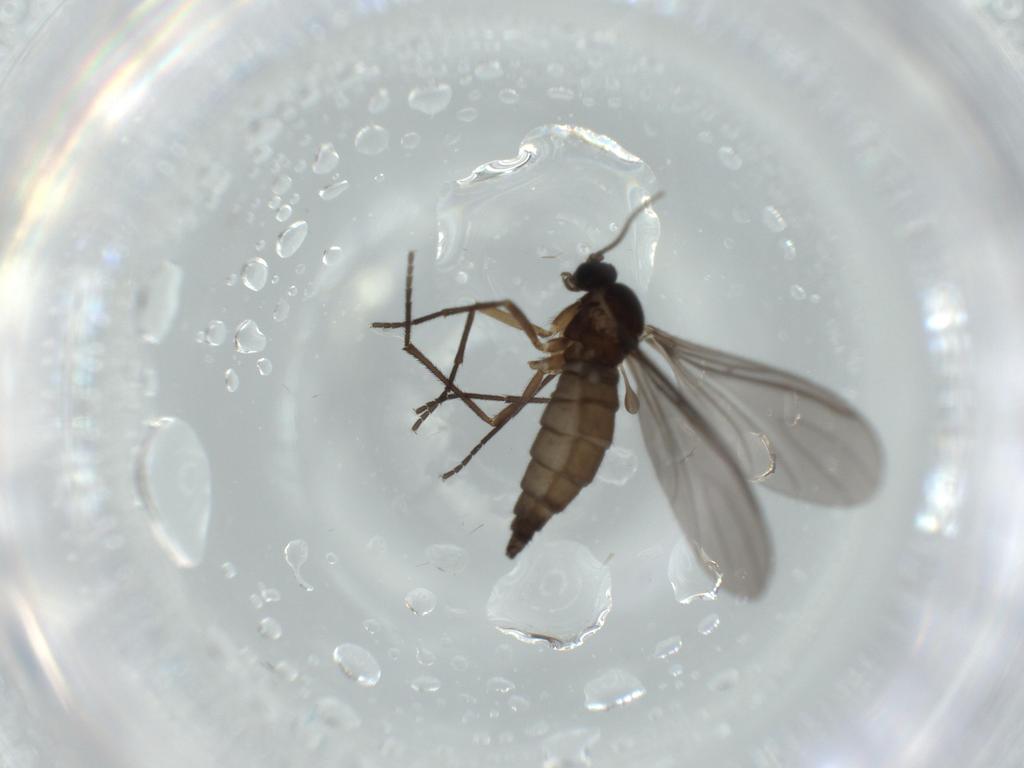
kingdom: Animalia
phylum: Arthropoda
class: Insecta
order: Diptera
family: Sciaridae
